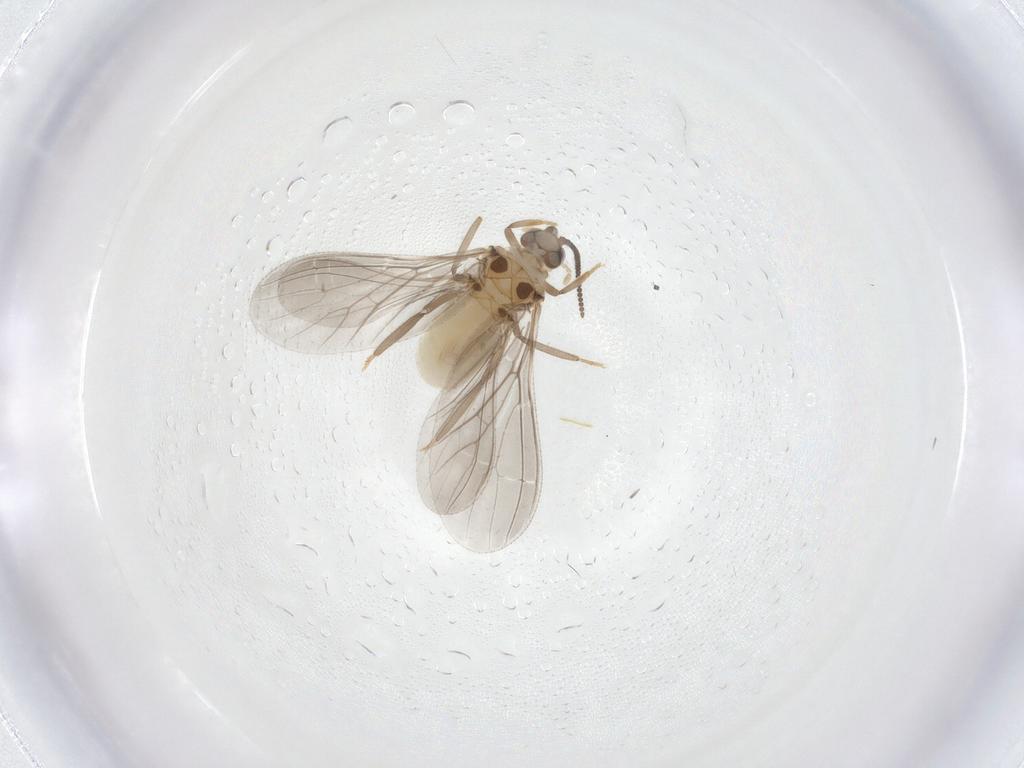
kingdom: Animalia
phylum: Arthropoda
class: Insecta
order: Neuroptera
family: Coniopterygidae
